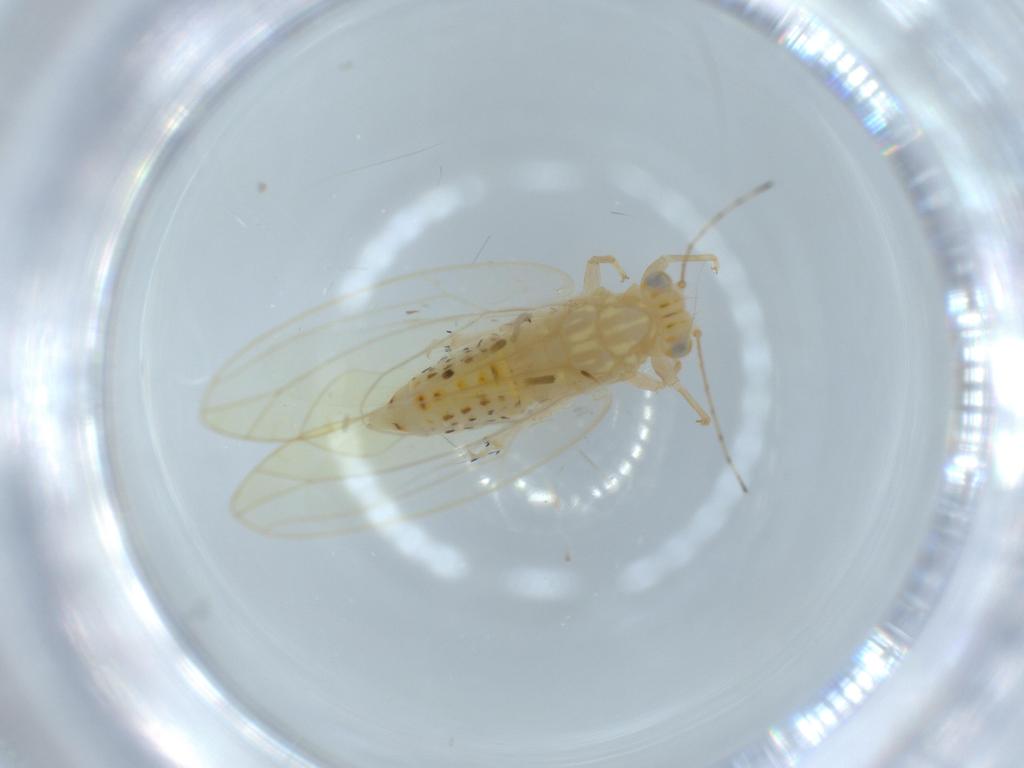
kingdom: Animalia
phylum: Arthropoda
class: Insecta
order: Hemiptera
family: Triozidae
